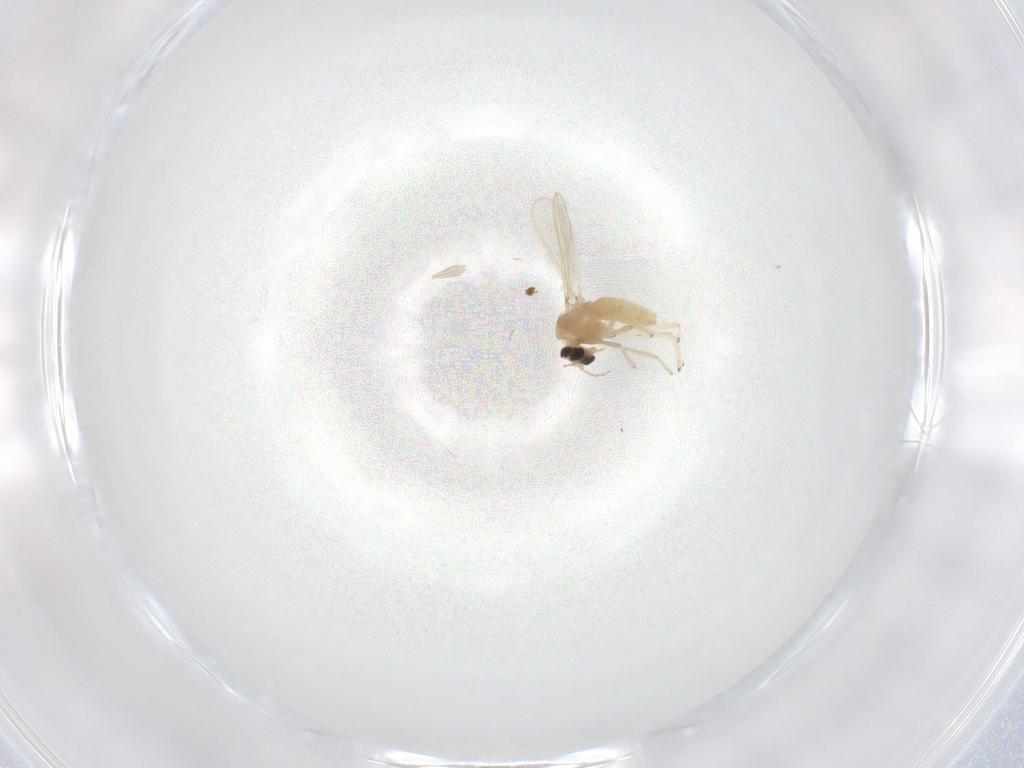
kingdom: Animalia
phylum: Arthropoda
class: Insecta
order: Diptera
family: Chironomidae
